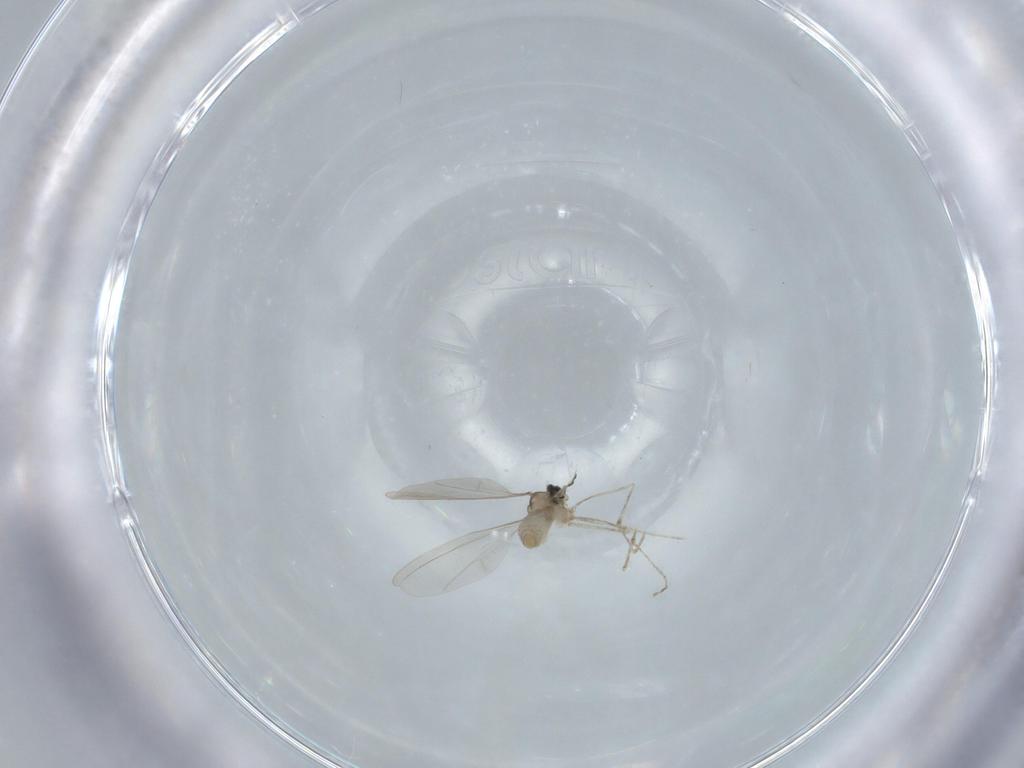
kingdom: Animalia
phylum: Arthropoda
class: Insecta
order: Diptera
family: Cecidomyiidae
